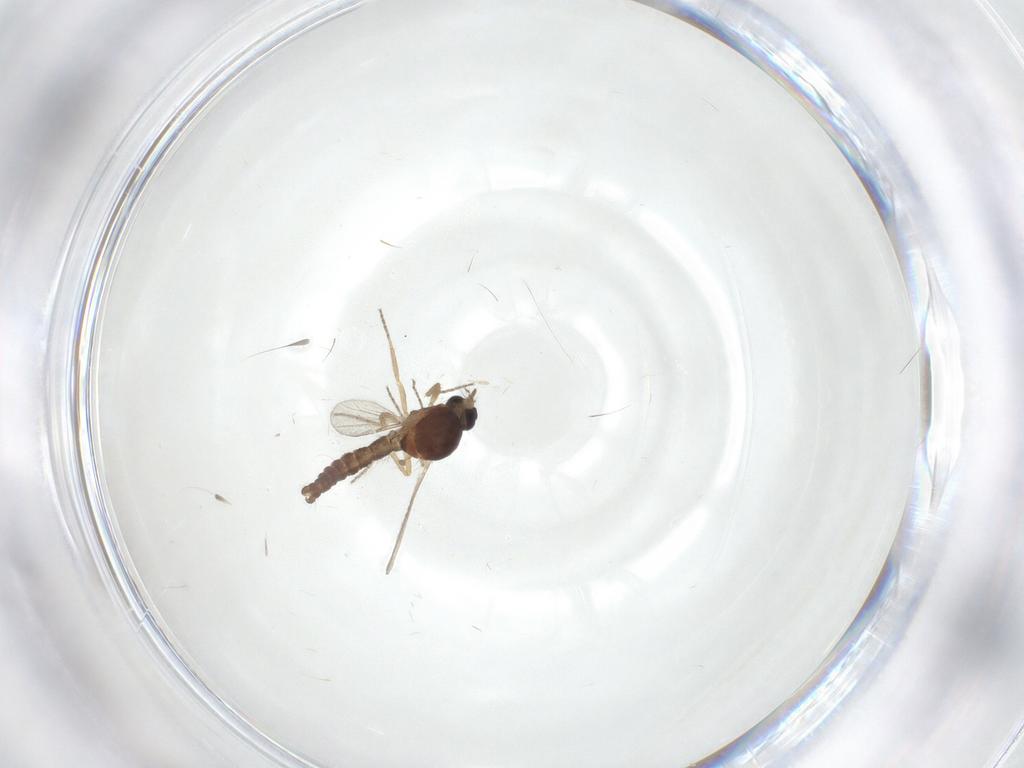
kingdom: Animalia
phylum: Arthropoda
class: Insecta
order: Diptera
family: Ceratopogonidae
